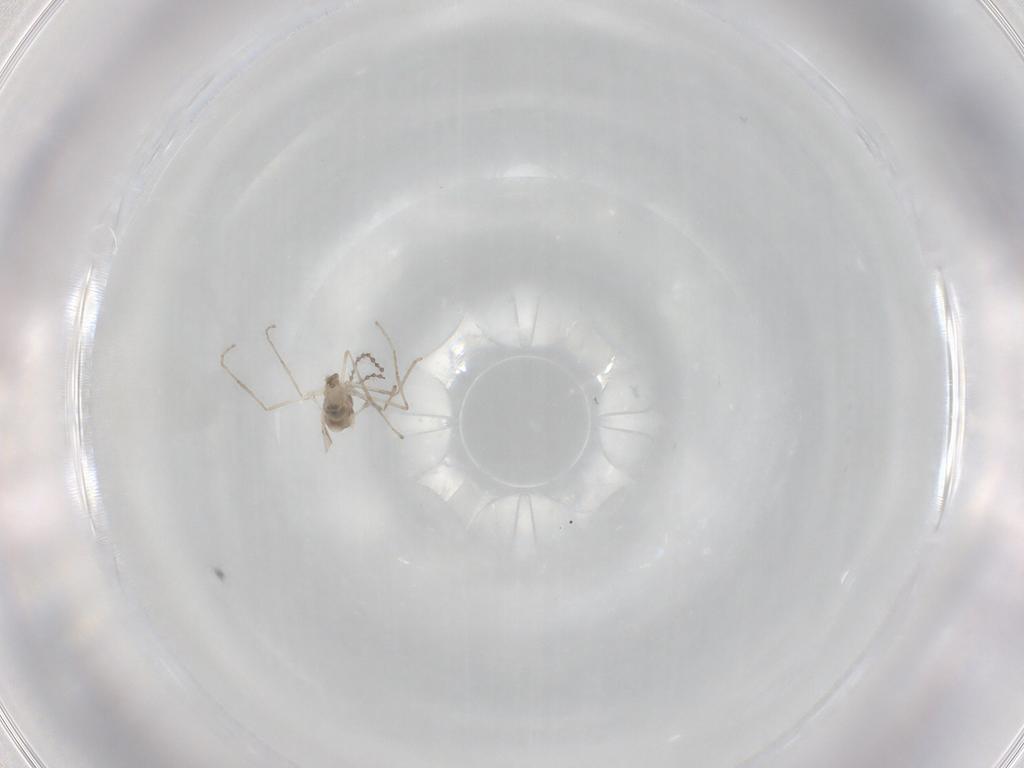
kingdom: Animalia
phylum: Arthropoda
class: Insecta
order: Diptera
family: Cecidomyiidae
